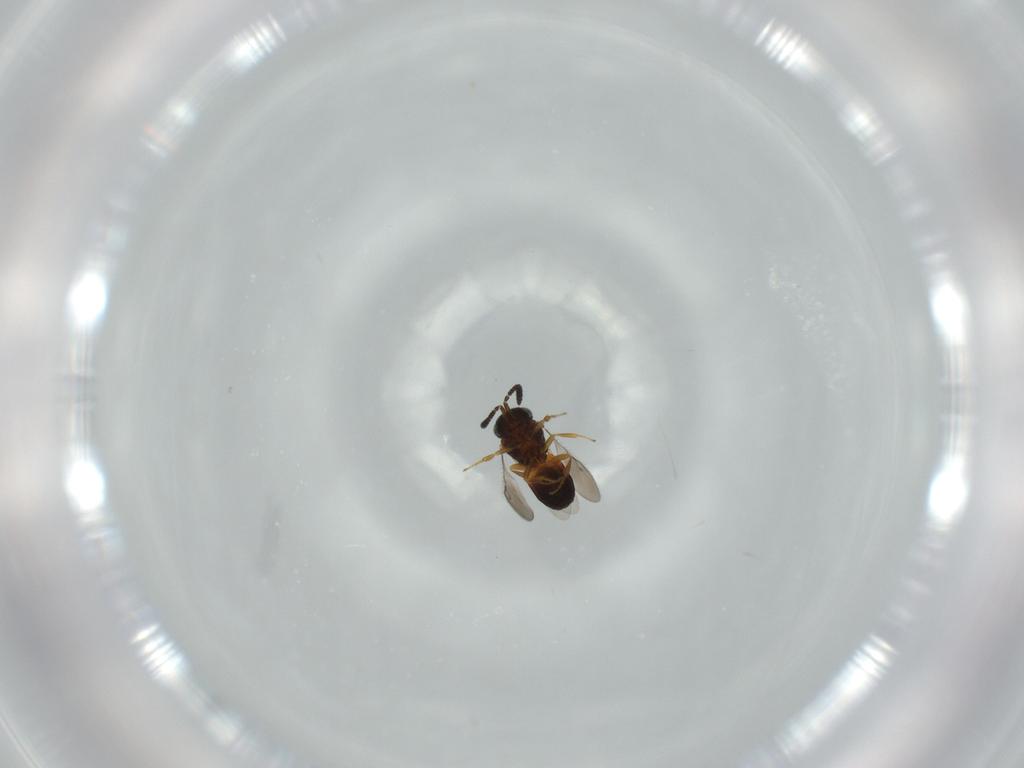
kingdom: Animalia
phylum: Arthropoda
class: Insecta
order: Hymenoptera
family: Scelionidae
